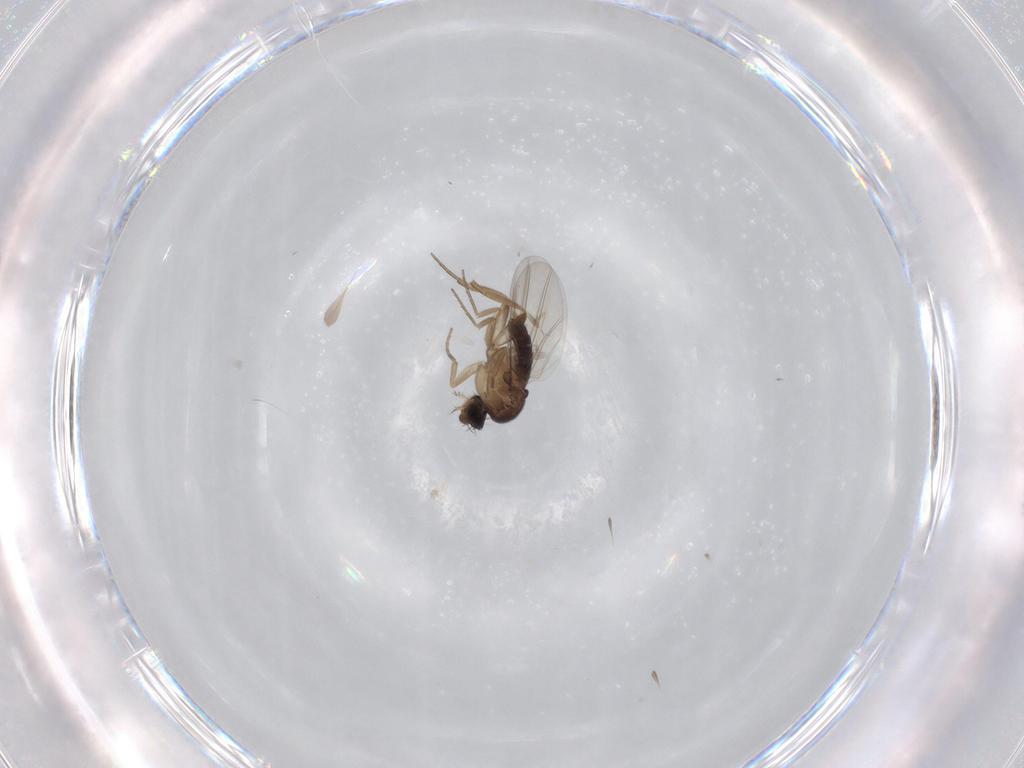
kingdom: Animalia
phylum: Arthropoda
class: Insecta
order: Diptera
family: Phoridae
